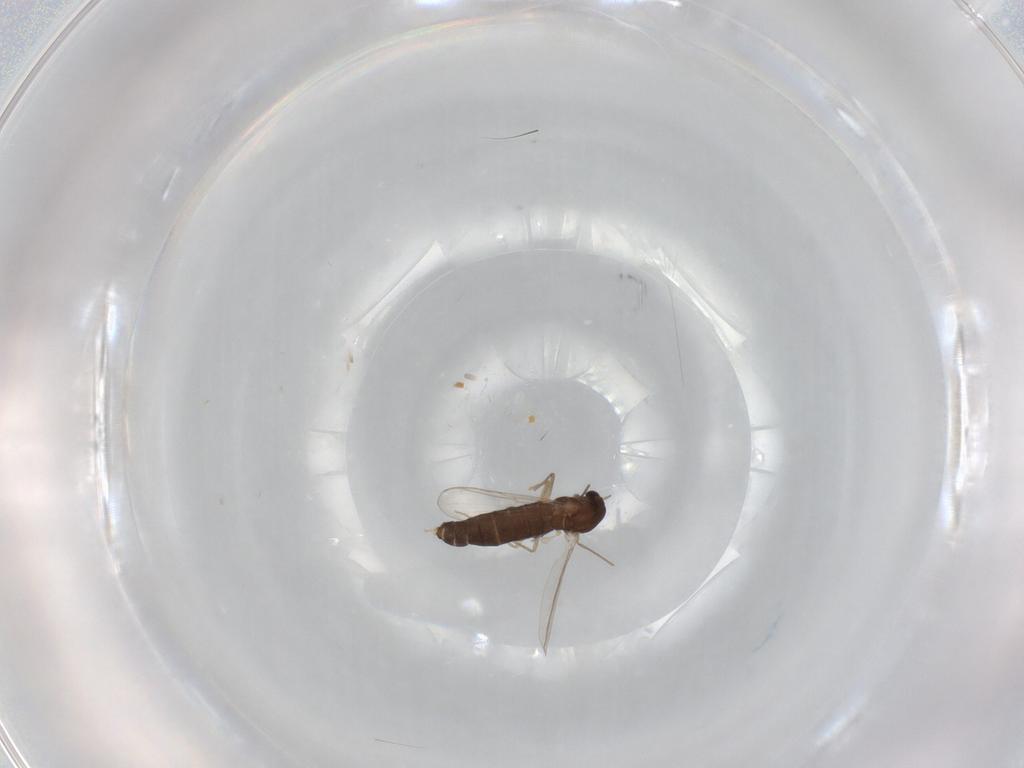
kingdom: Animalia
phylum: Arthropoda
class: Insecta
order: Diptera
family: Chironomidae
